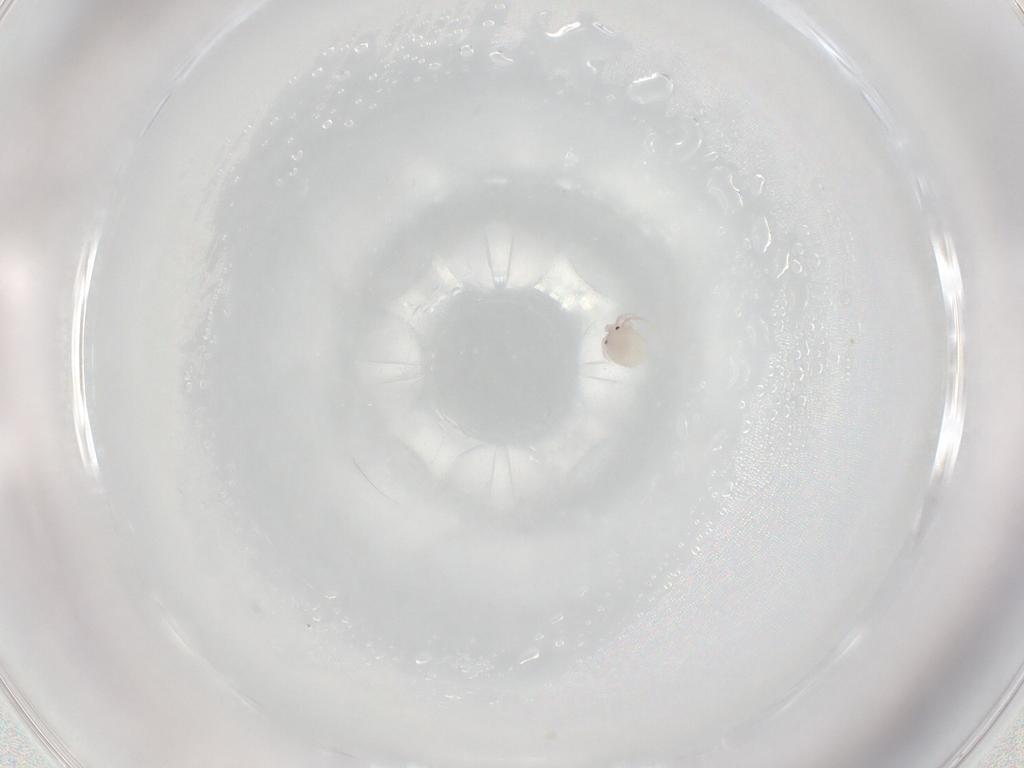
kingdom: Animalia
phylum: Arthropoda
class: Arachnida
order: Trombidiformes
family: Lebertiidae
